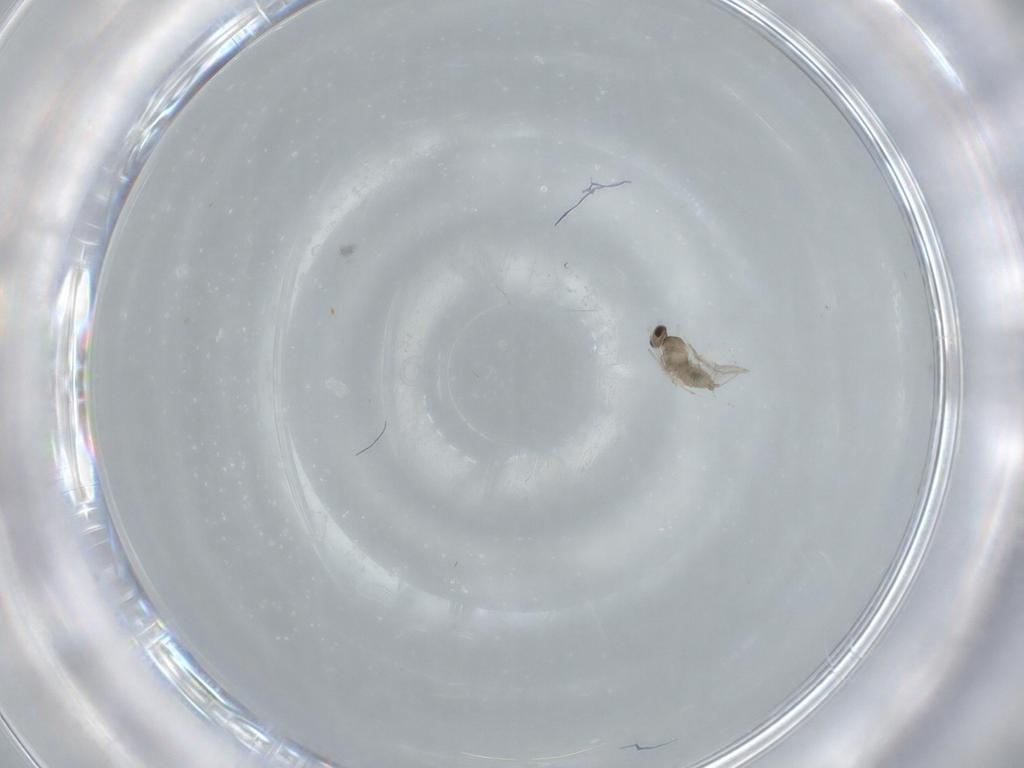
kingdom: Animalia
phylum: Arthropoda
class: Insecta
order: Diptera
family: Cecidomyiidae
